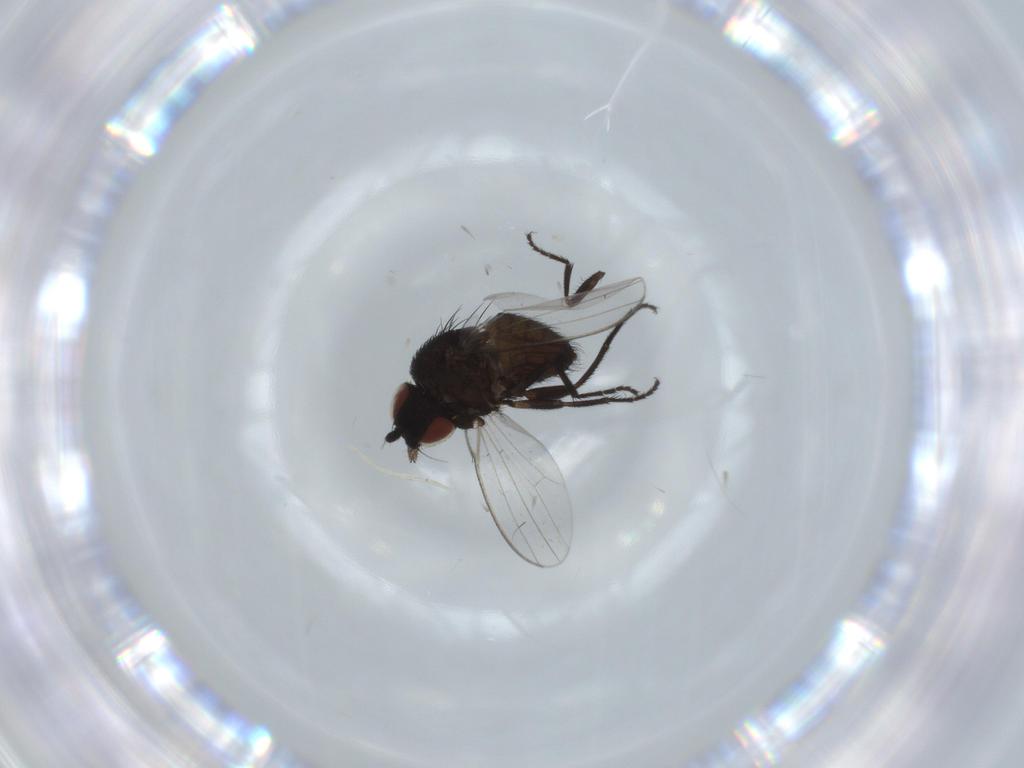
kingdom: Animalia
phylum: Arthropoda
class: Insecta
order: Diptera
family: Milichiidae
